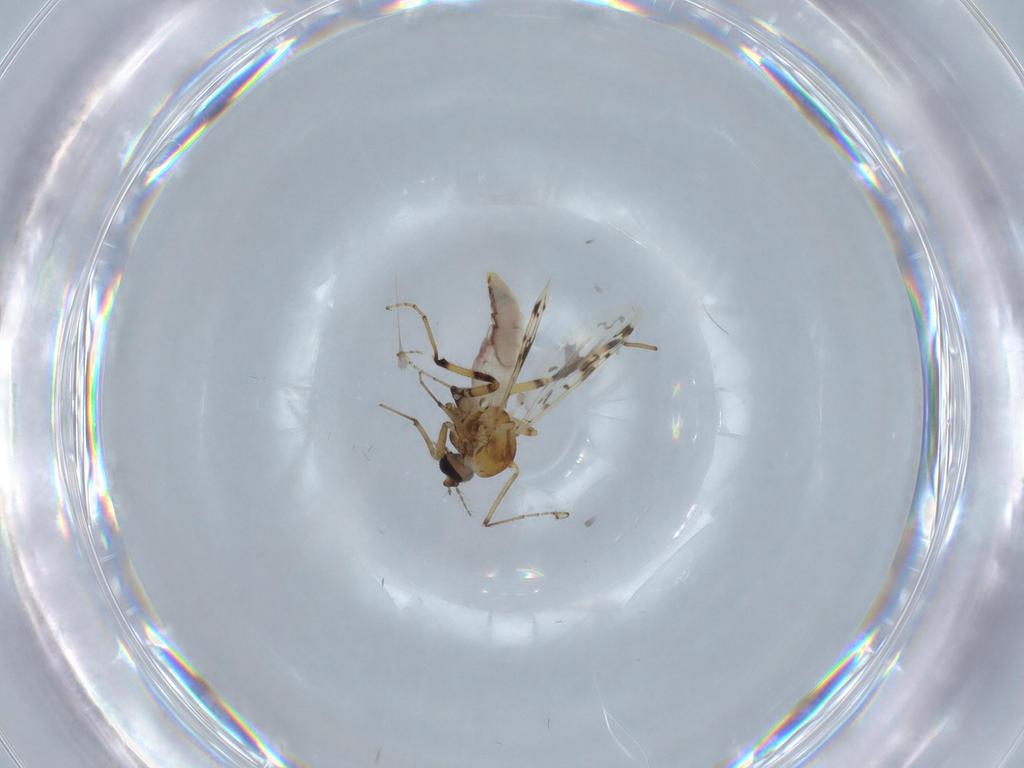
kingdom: Animalia
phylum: Arthropoda
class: Insecta
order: Diptera
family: Ceratopogonidae
